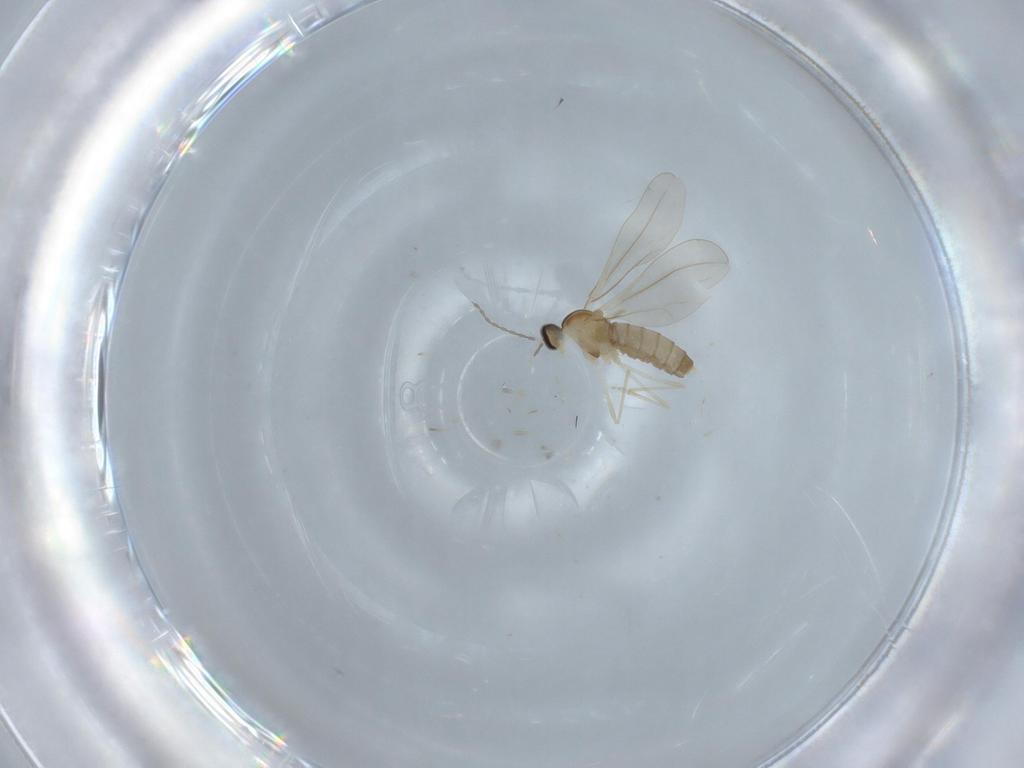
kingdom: Animalia
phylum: Arthropoda
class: Insecta
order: Diptera
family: Cecidomyiidae
